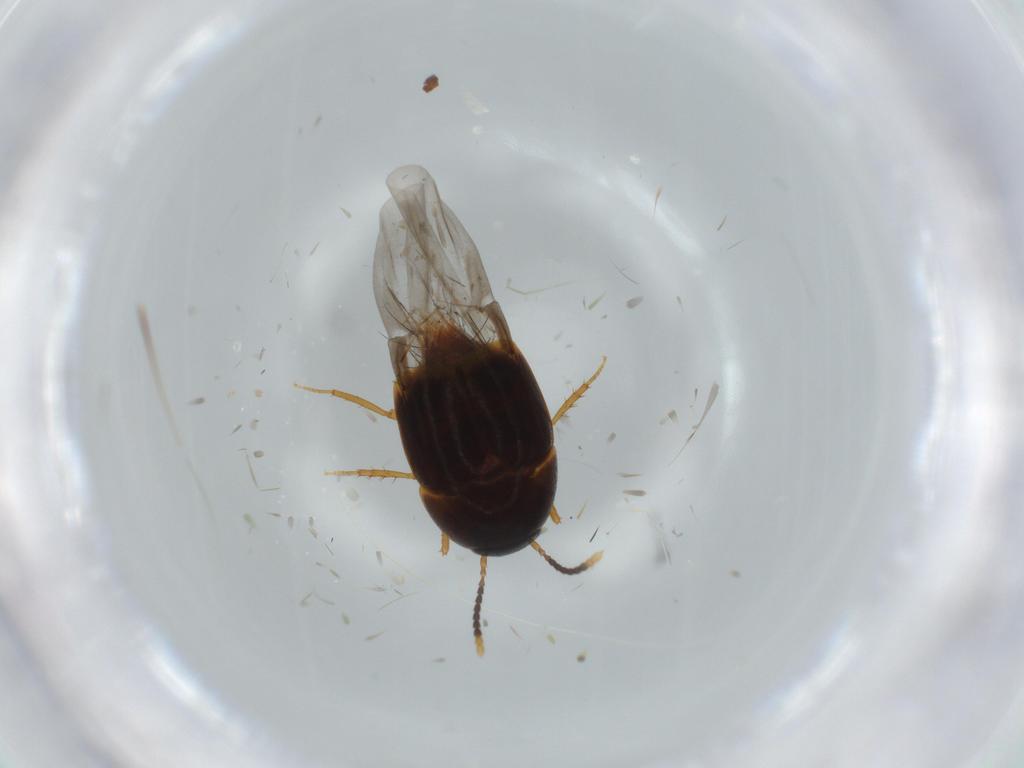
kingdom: Animalia
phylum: Arthropoda
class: Insecta
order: Coleoptera
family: Staphylinidae
